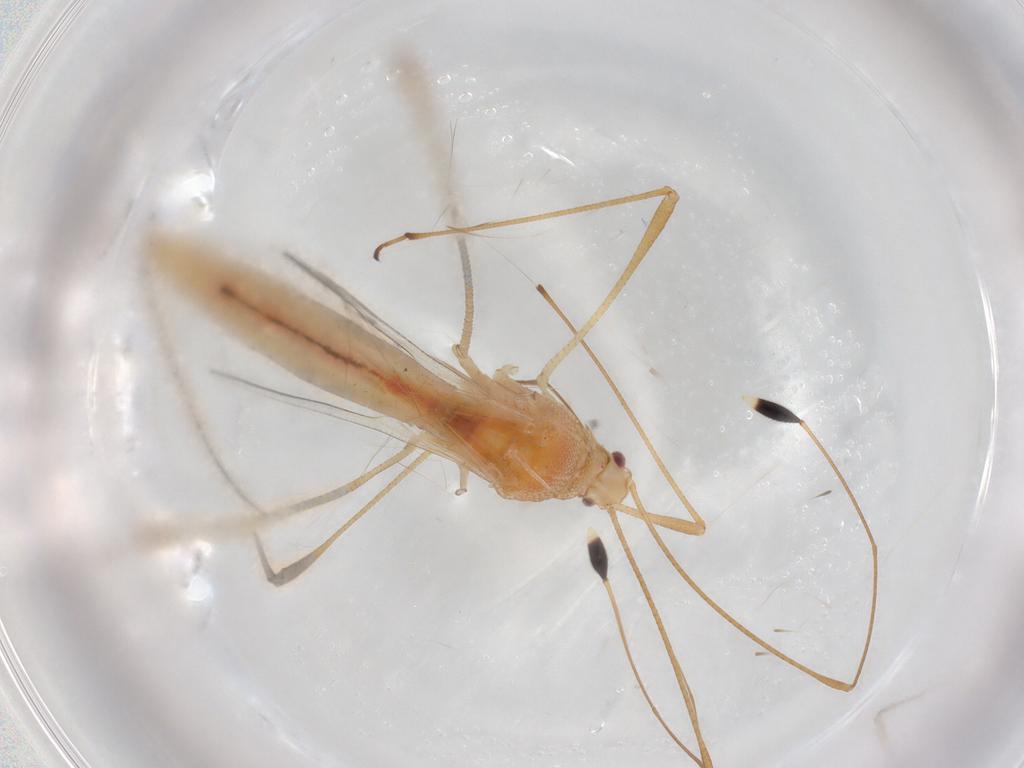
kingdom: Animalia
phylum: Arthropoda
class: Insecta
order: Hemiptera
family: Berytidae
